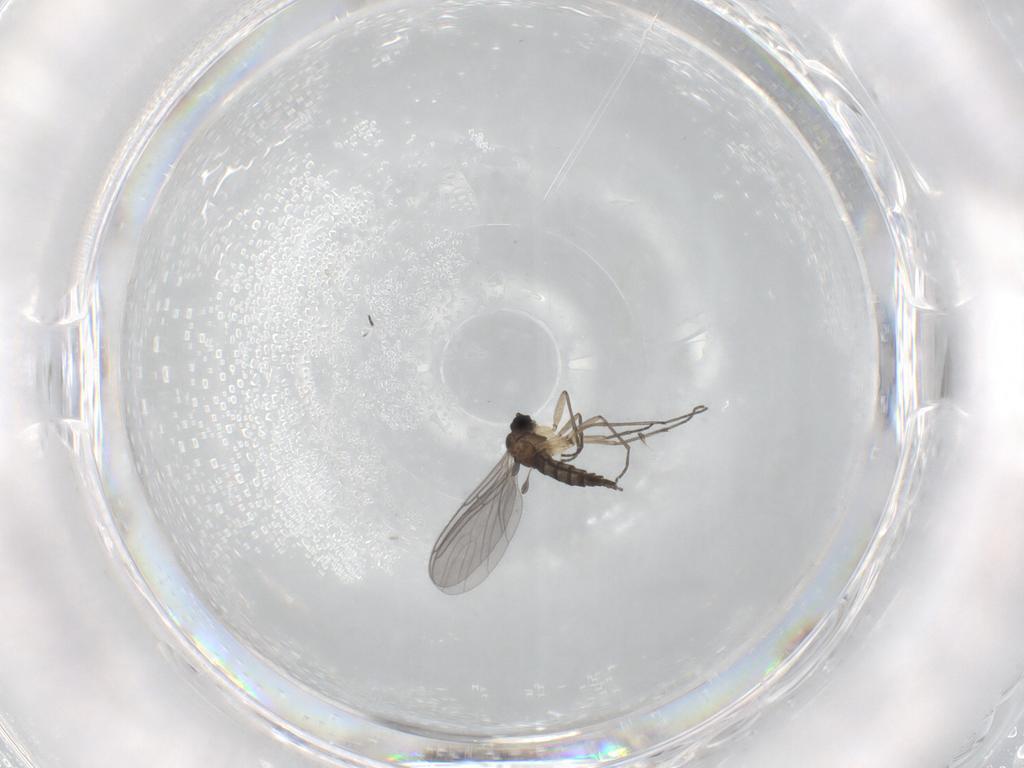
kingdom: Animalia
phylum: Arthropoda
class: Insecta
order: Diptera
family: Sciaridae
